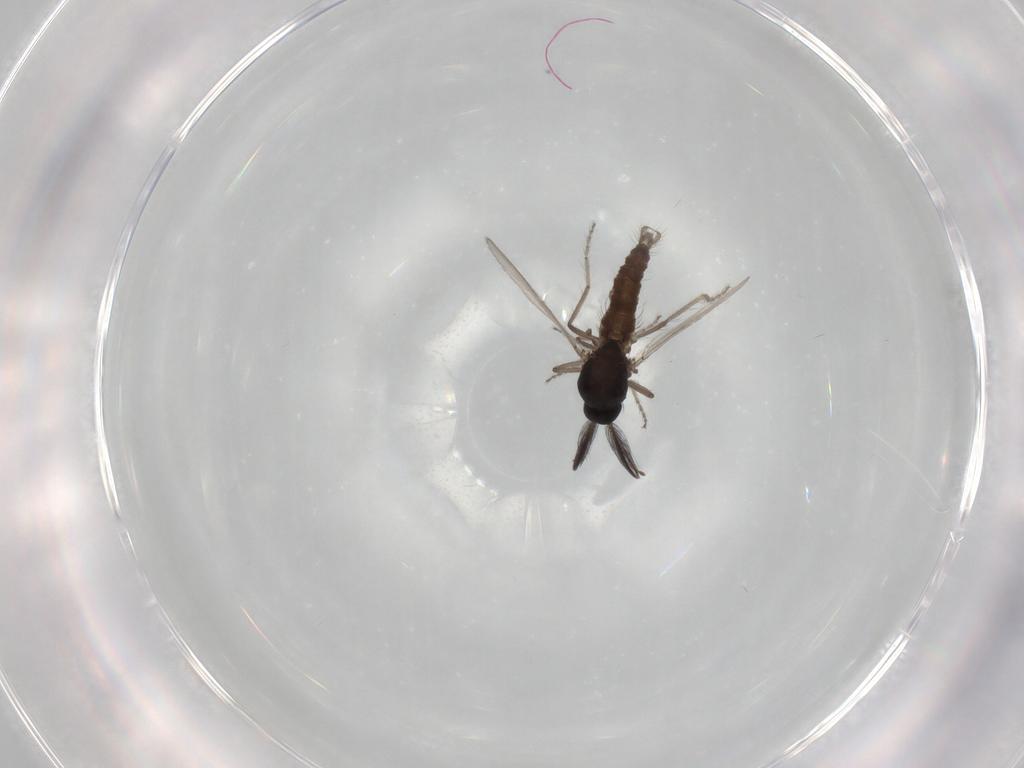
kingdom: Animalia
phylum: Arthropoda
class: Insecta
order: Diptera
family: Ceratopogonidae
